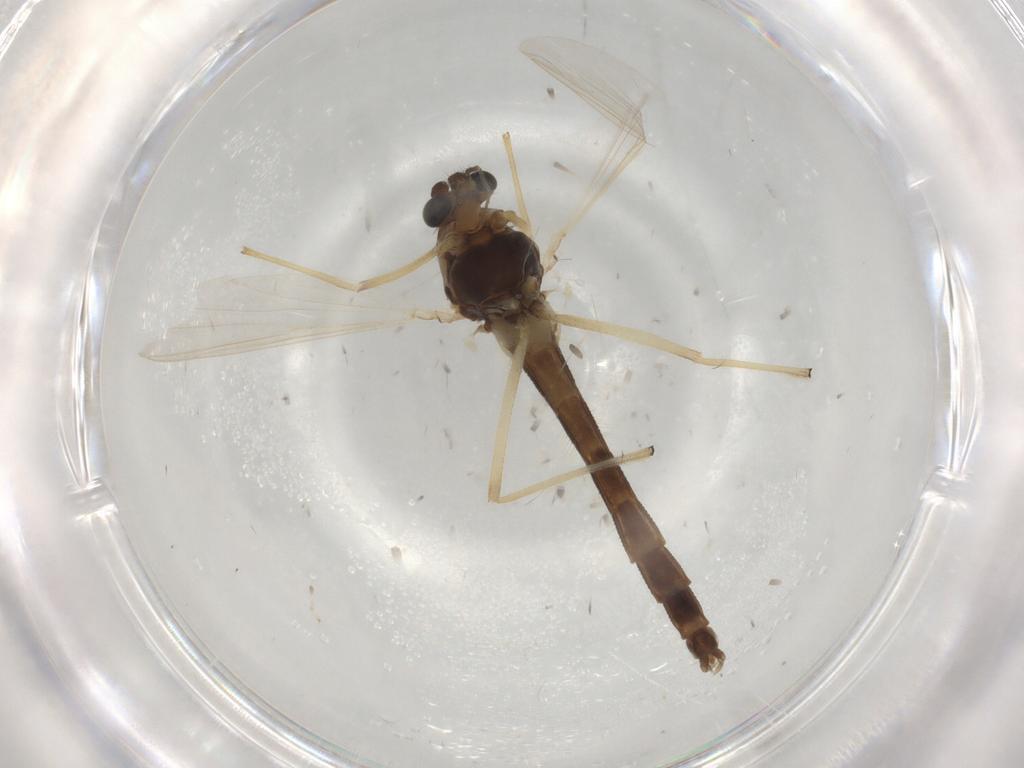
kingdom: Animalia
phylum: Arthropoda
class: Insecta
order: Diptera
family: Chironomidae
